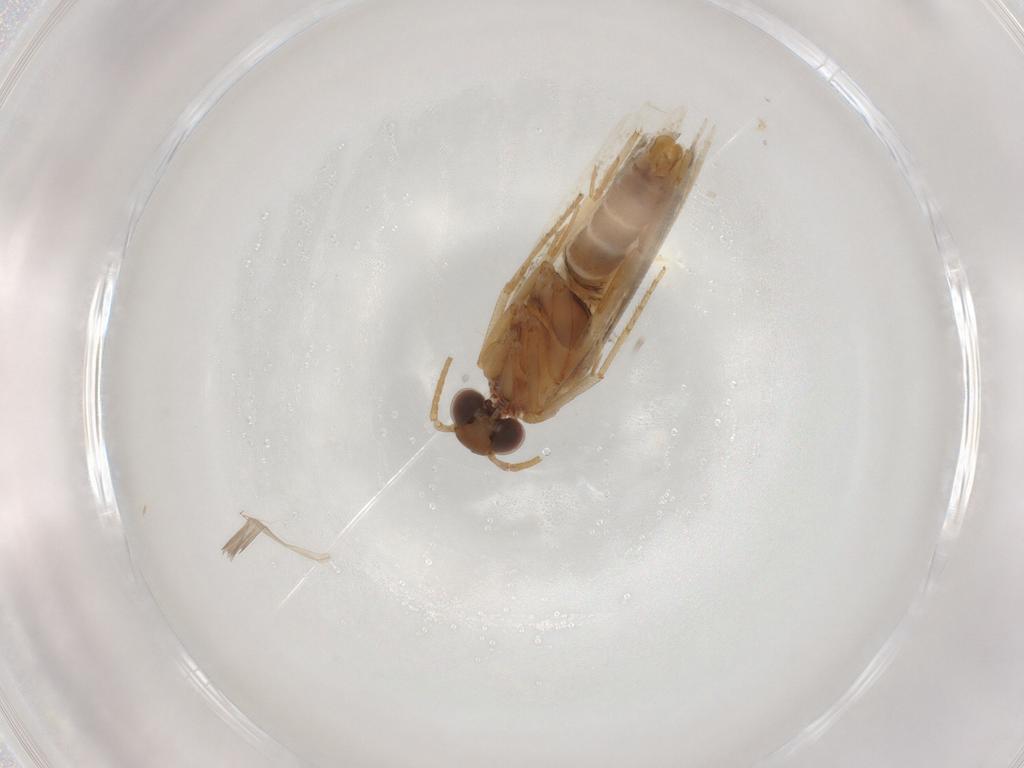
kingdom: Animalia
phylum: Arthropoda
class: Insecta
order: Lepidoptera
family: Plutellidae
